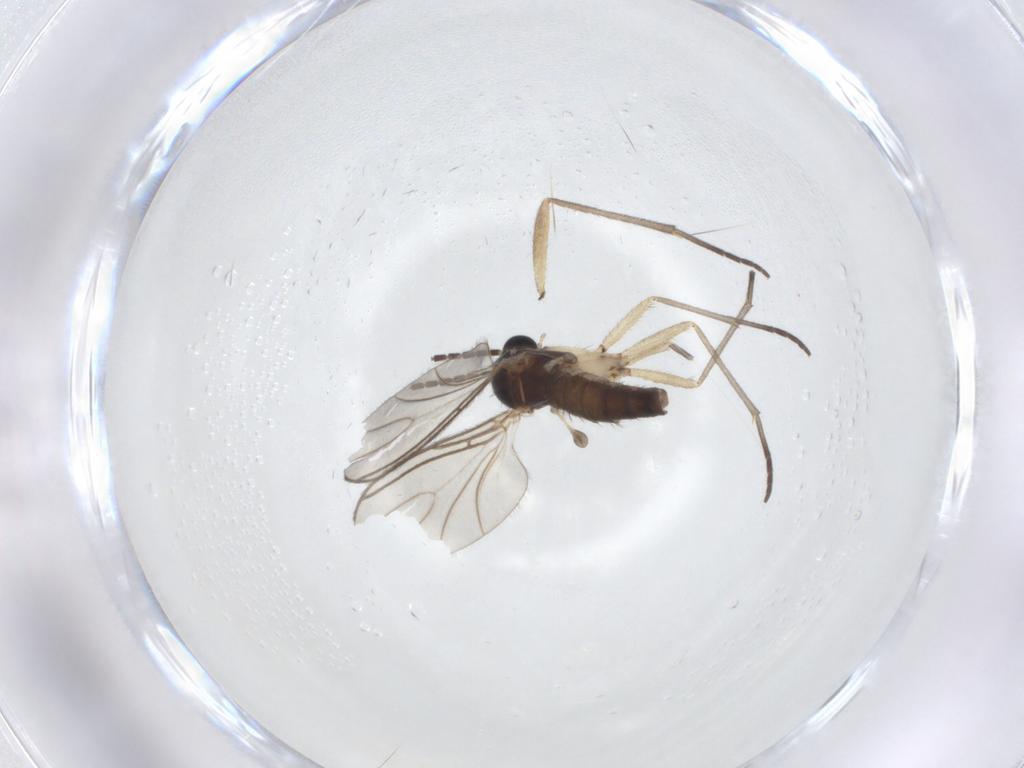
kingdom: Animalia
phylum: Arthropoda
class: Insecta
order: Diptera
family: Sciaridae
